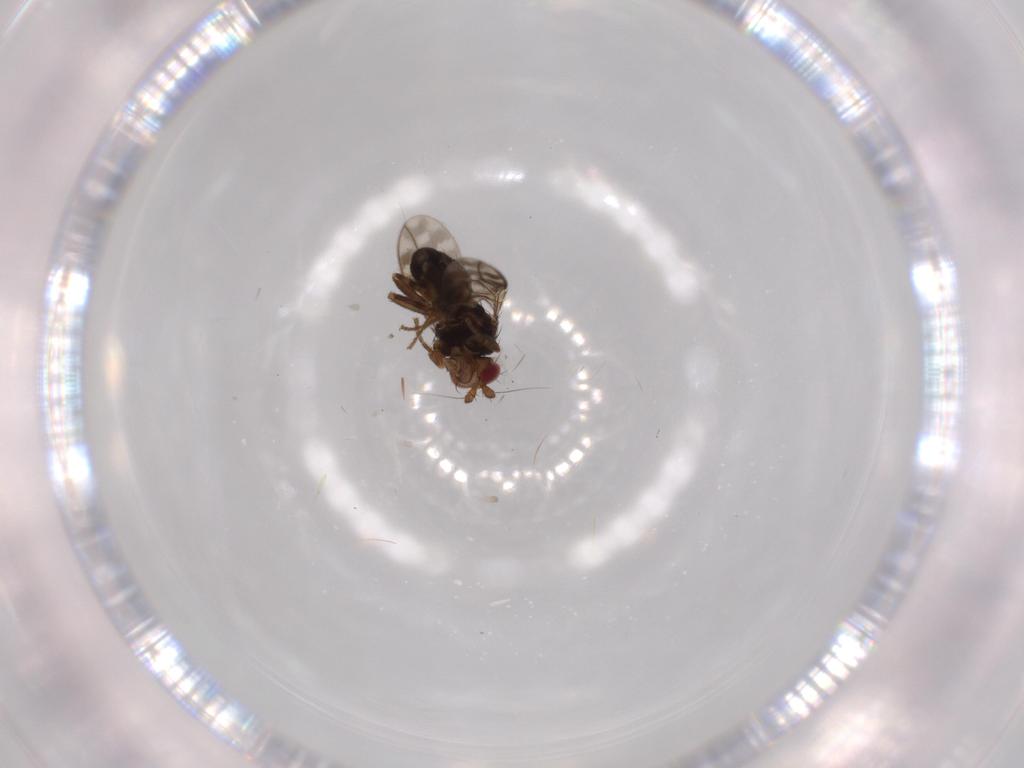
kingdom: Animalia
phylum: Arthropoda
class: Insecta
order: Diptera
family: Sphaeroceridae
